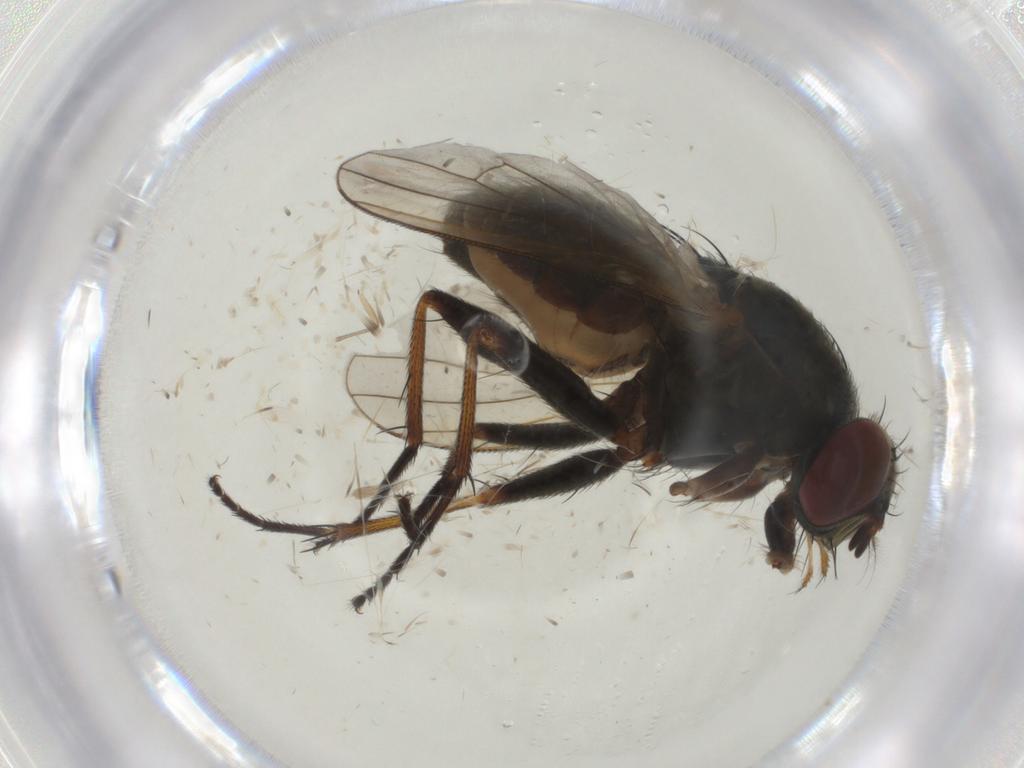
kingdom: Animalia
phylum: Arthropoda
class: Insecta
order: Diptera
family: Muscidae
